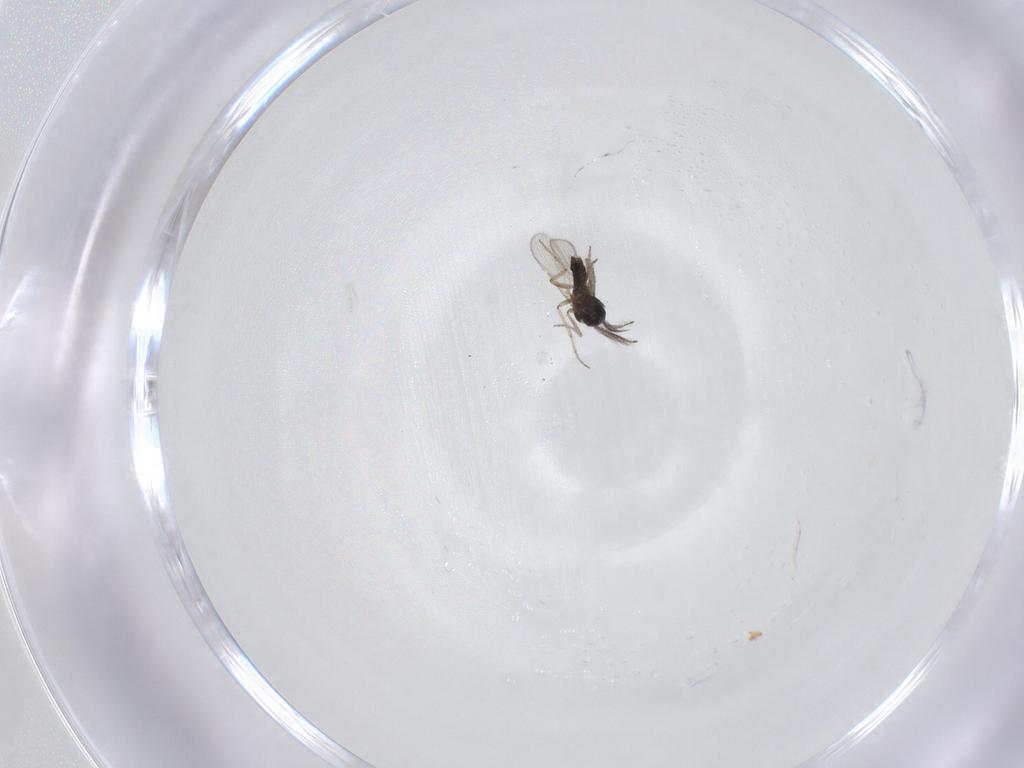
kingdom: Animalia
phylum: Arthropoda
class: Insecta
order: Diptera
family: Ceratopogonidae
